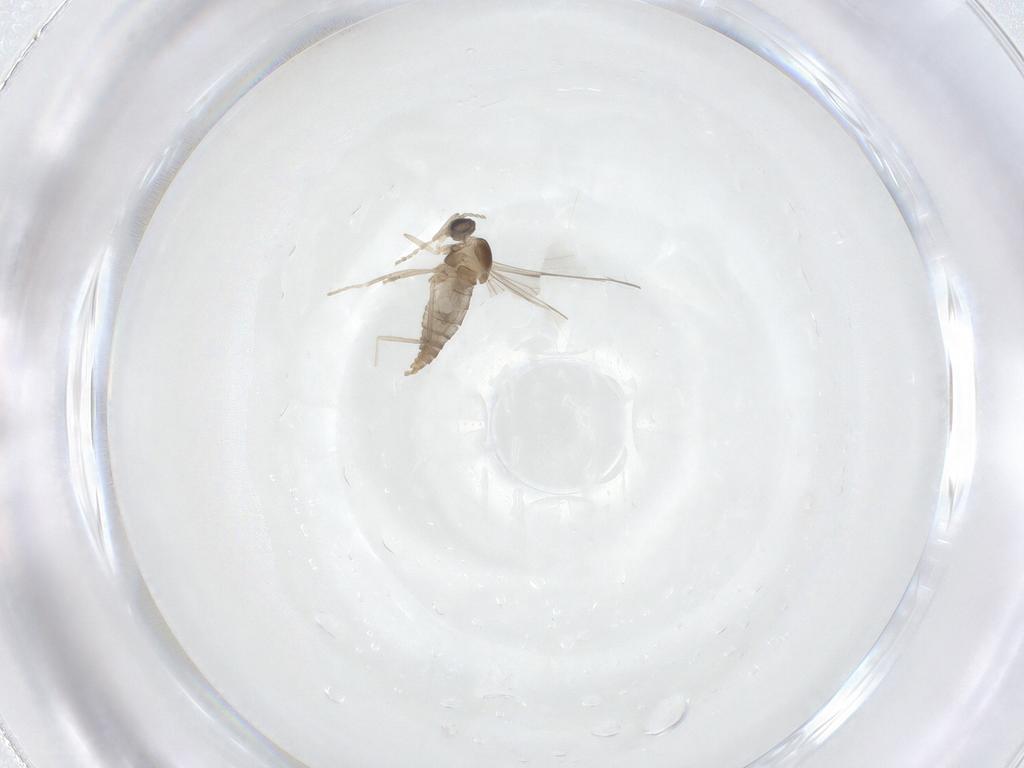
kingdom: Animalia
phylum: Arthropoda
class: Insecta
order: Diptera
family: Cecidomyiidae
